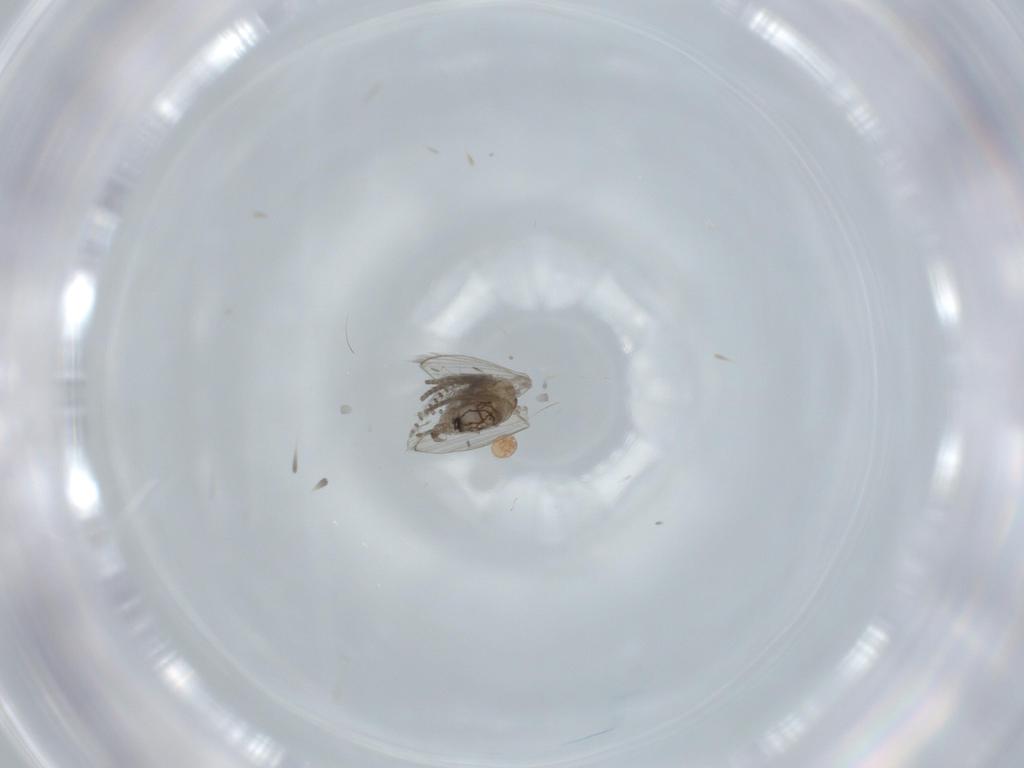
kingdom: Animalia
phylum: Arthropoda
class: Insecta
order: Diptera
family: Psychodidae
